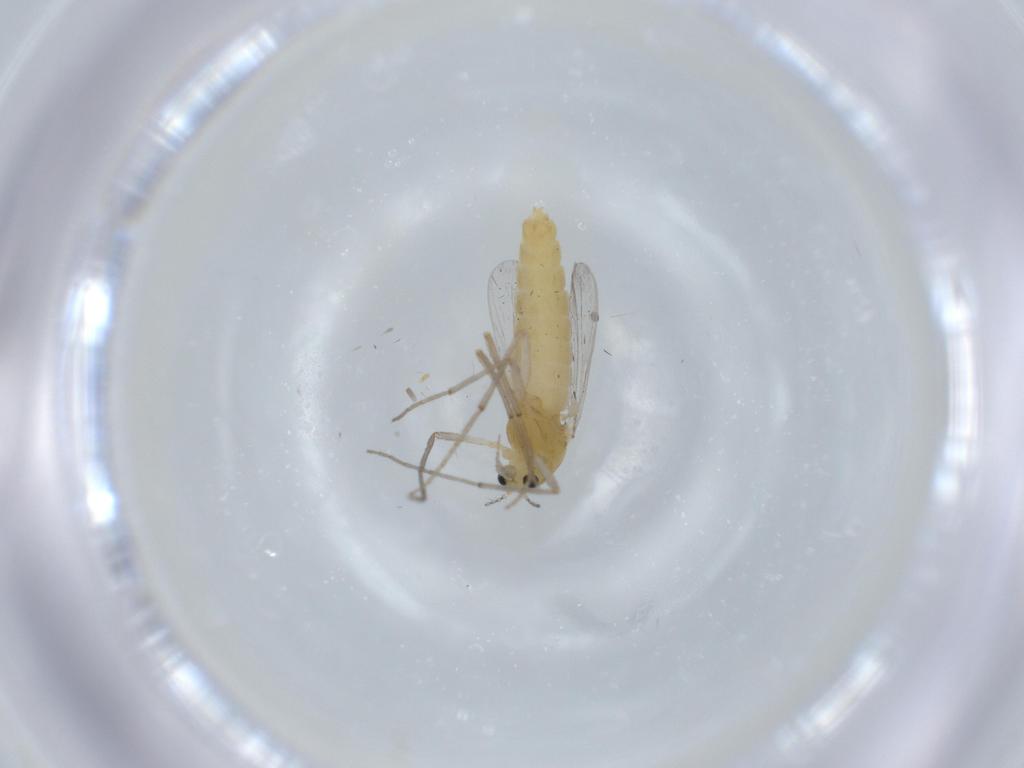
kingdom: Animalia
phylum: Arthropoda
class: Insecta
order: Diptera
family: Chironomidae
